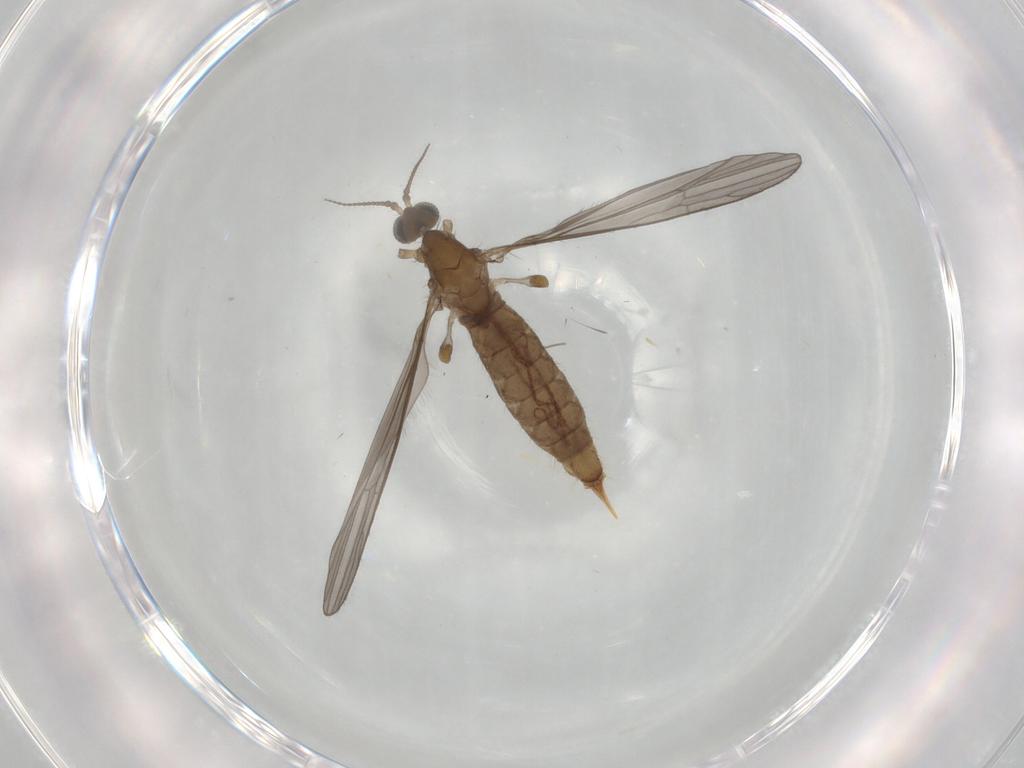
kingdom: Animalia
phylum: Arthropoda
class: Insecta
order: Diptera
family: Limoniidae
